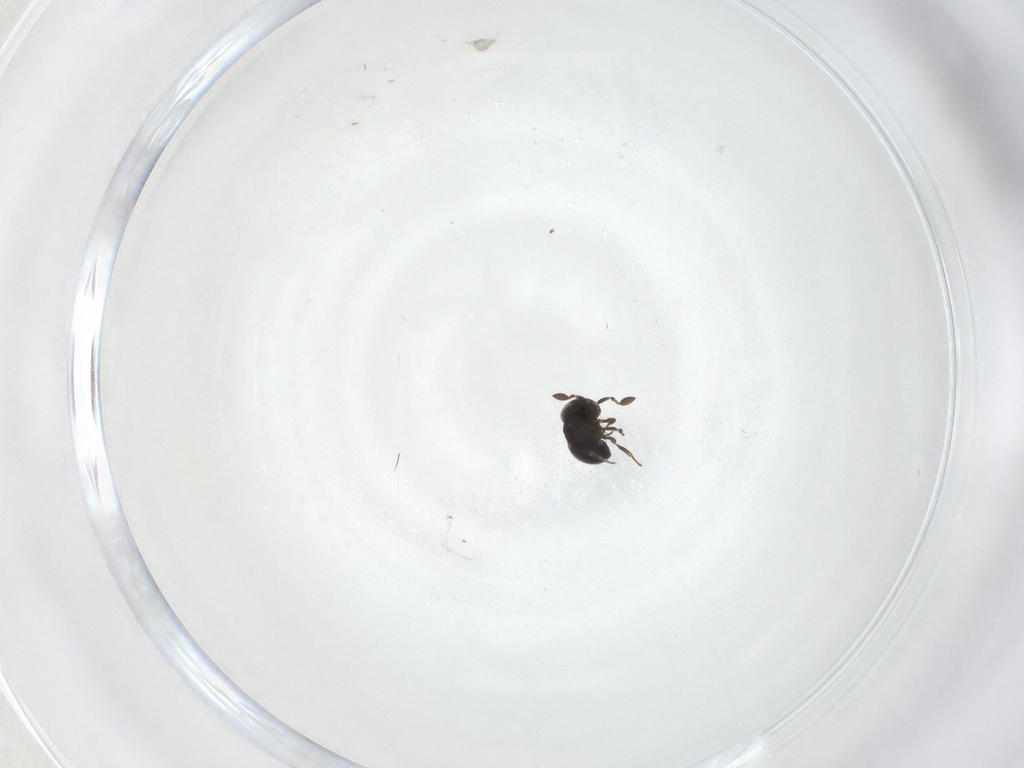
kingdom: Animalia
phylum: Arthropoda
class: Insecta
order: Hymenoptera
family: Scelionidae
